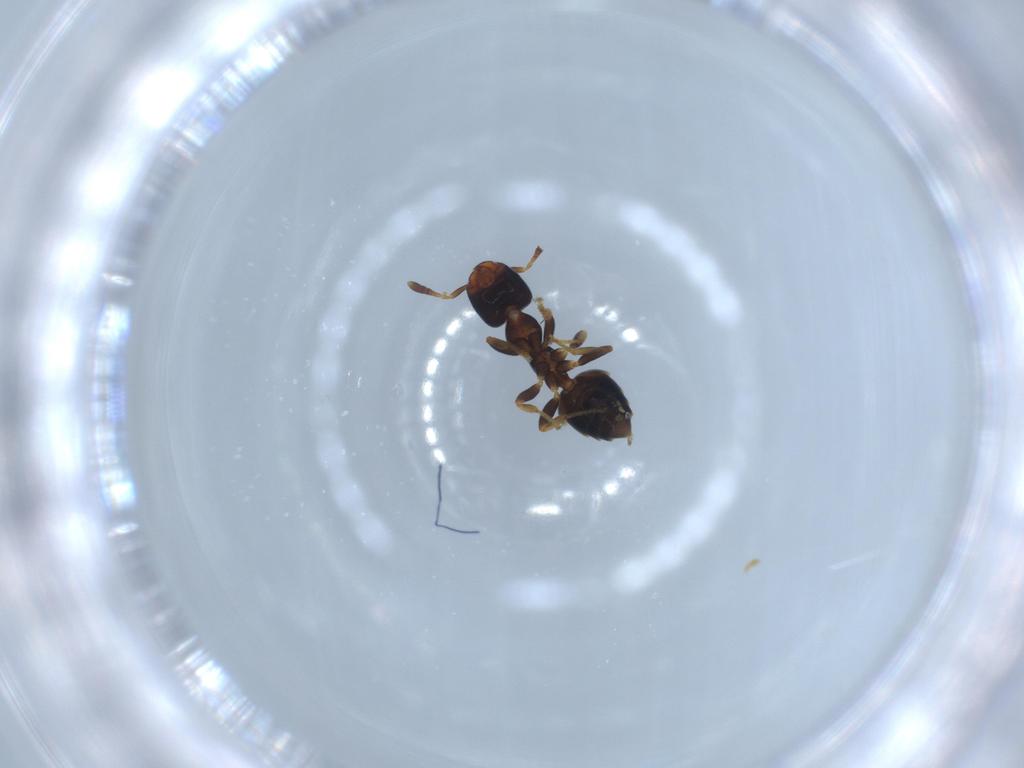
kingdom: Animalia
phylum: Arthropoda
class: Insecta
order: Hymenoptera
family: Formicidae
